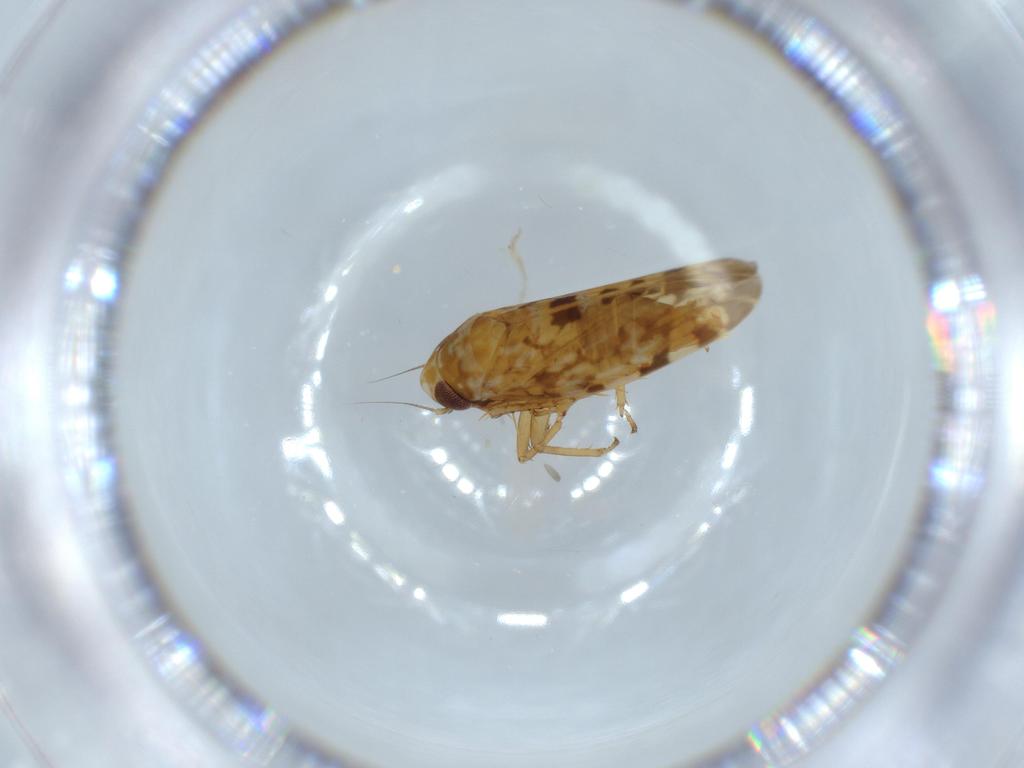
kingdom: Animalia
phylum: Arthropoda
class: Insecta
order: Hemiptera
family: Cicadellidae
